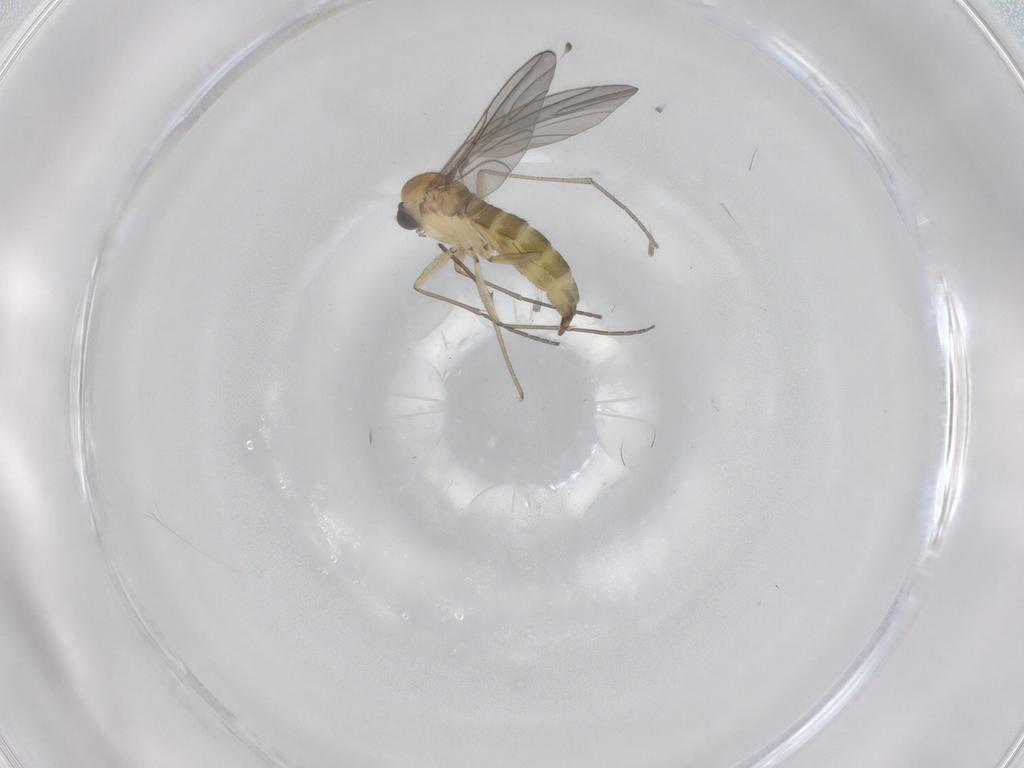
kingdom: Animalia
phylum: Arthropoda
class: Insecta
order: Diptera
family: Sciaridae
